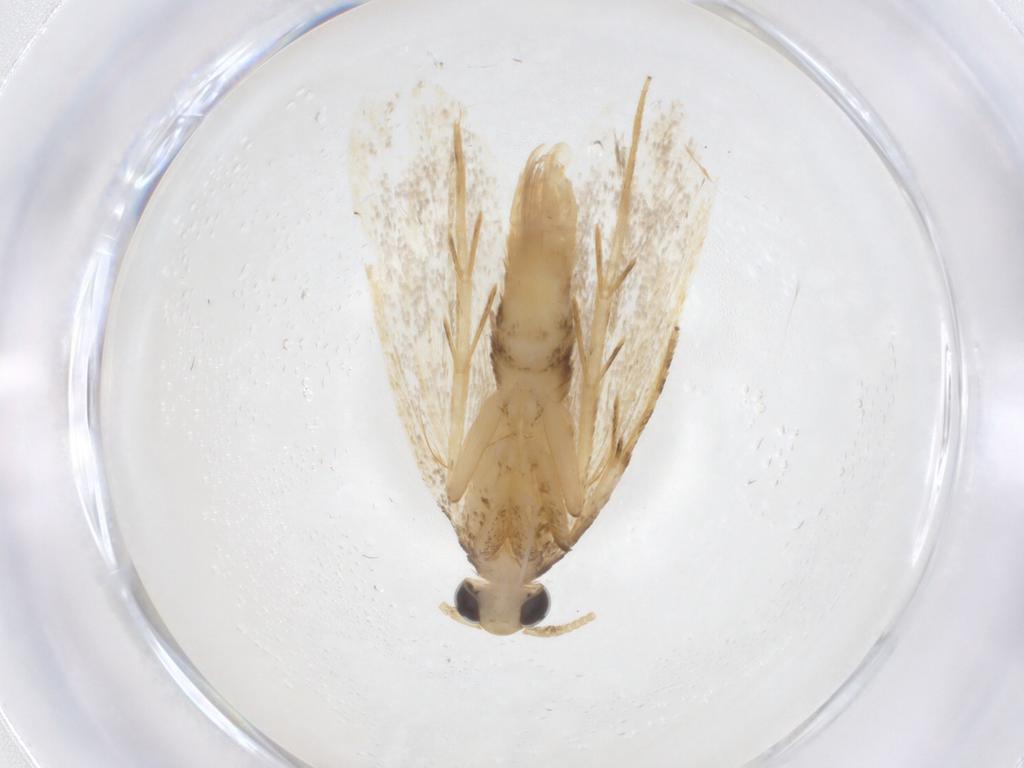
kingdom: Animalia
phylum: Arthropoda
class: Insecta
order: Lepidoptera
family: Lecithoceridae
